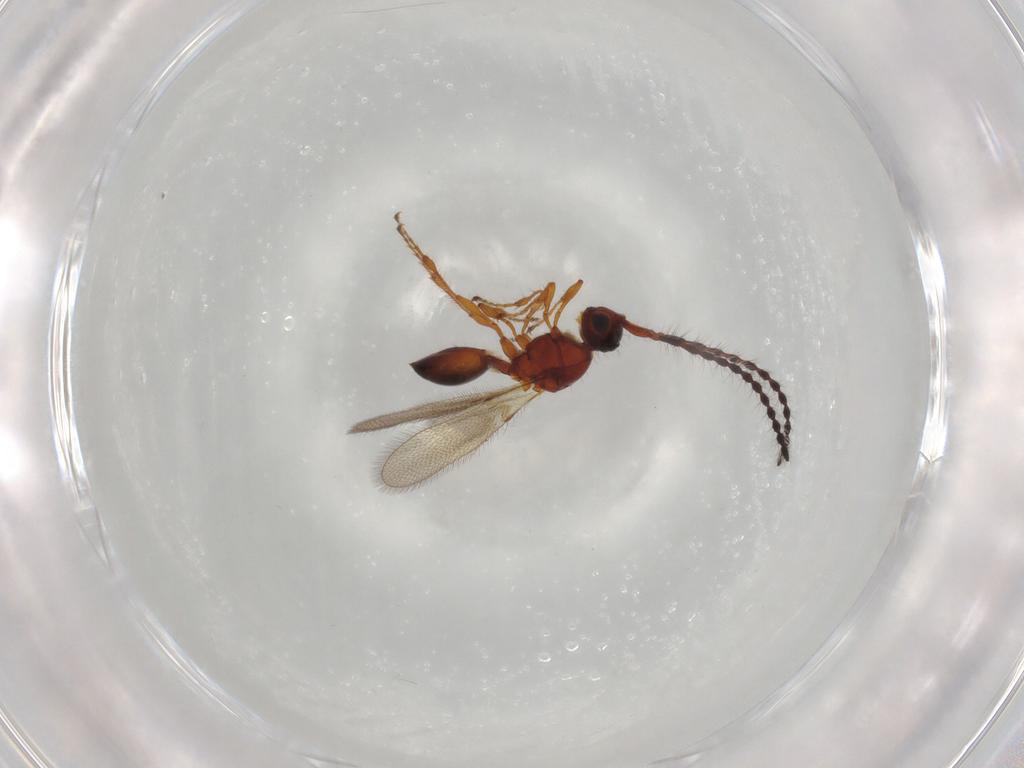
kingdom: Animalia
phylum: Arthropoda
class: Insecta
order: Hymenoptera
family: Diapriidae
